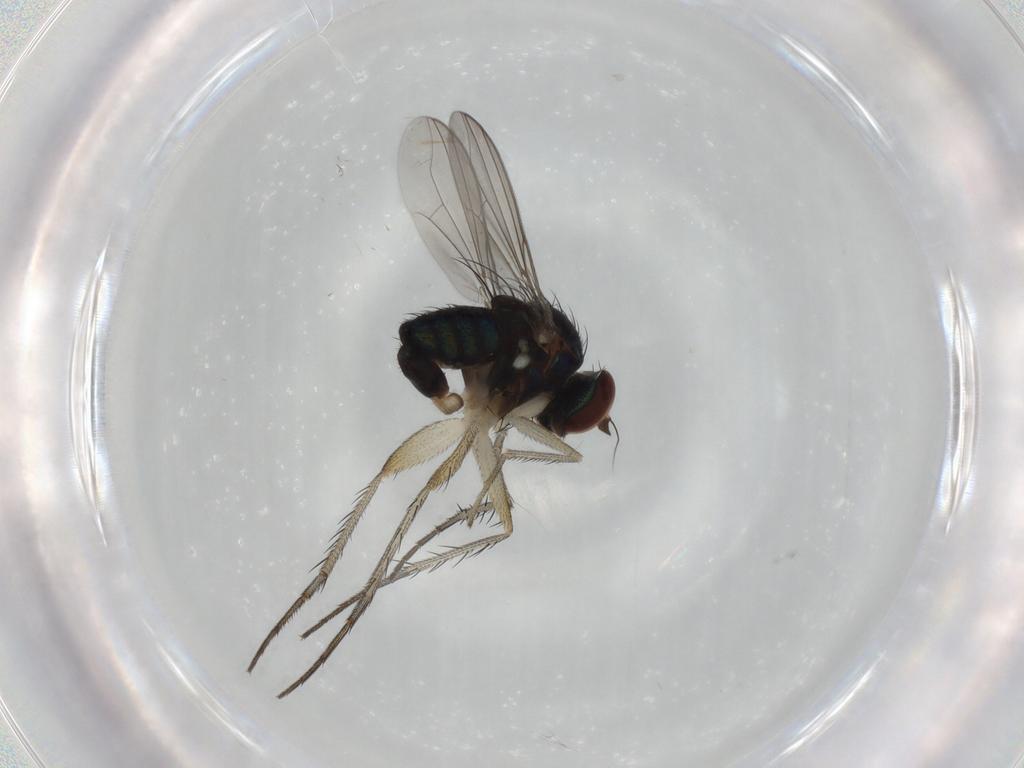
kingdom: Animalia
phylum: Arthropoda
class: Insecta
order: Diptera
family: Dolichopodidae
